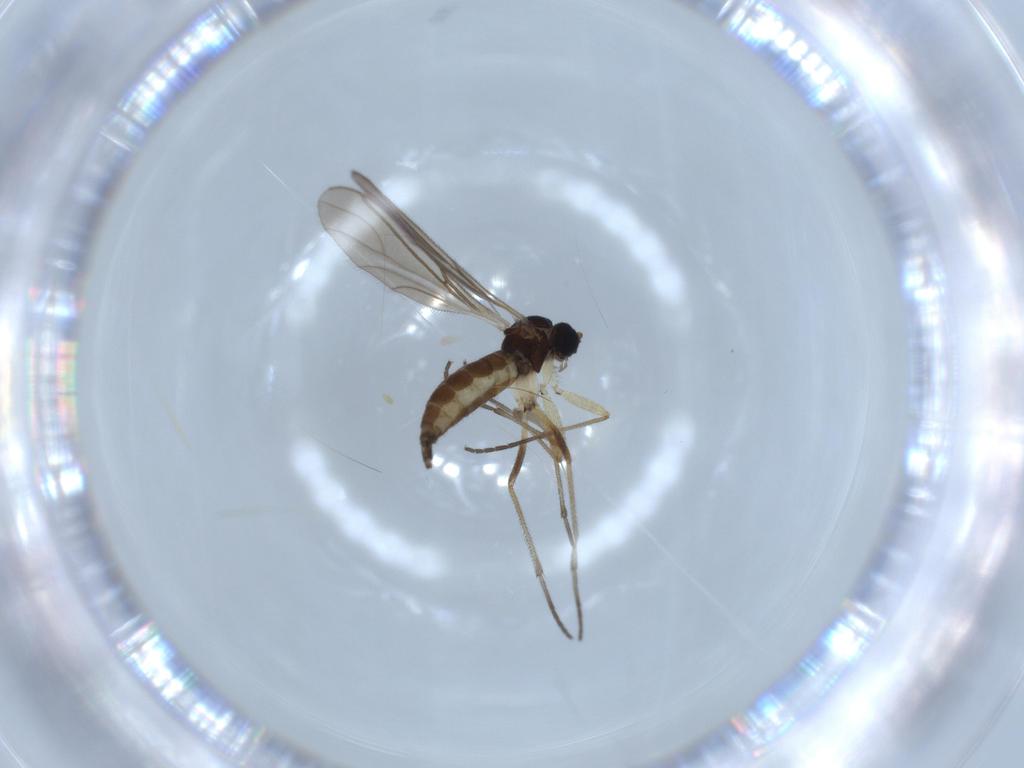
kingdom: Animalia
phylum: Arthropoda
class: Insecta
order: Diptera
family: Sciaridae
